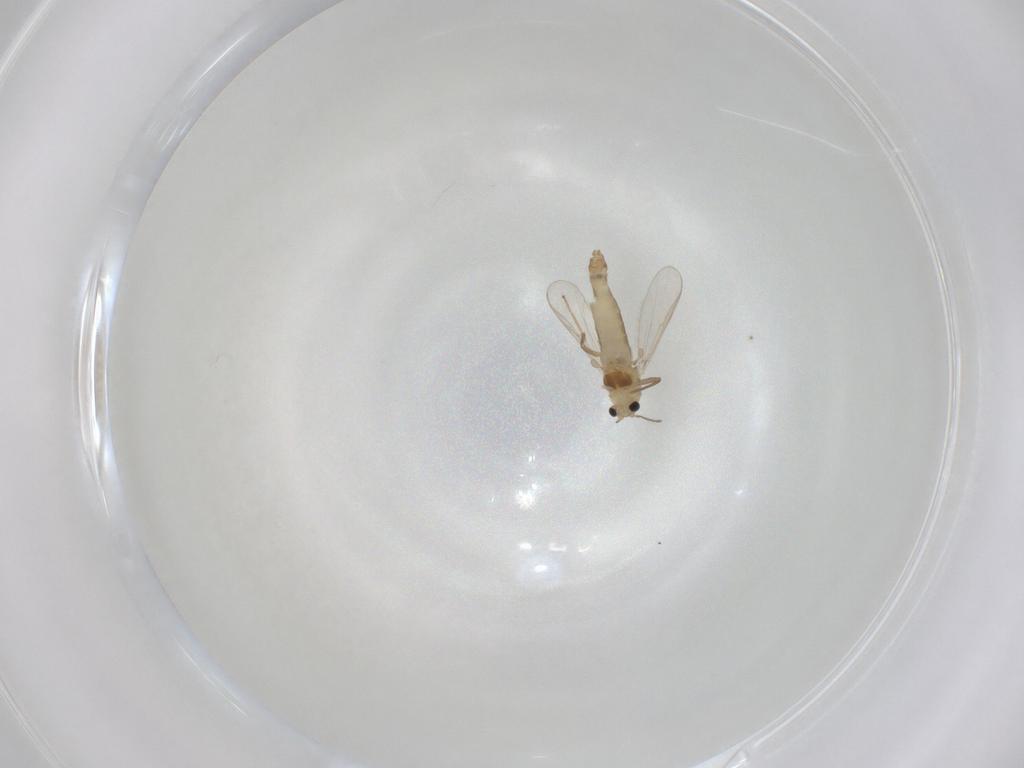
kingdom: Animalia
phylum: Arthropoda
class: Insecta
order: Diptera
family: Chironomidae
